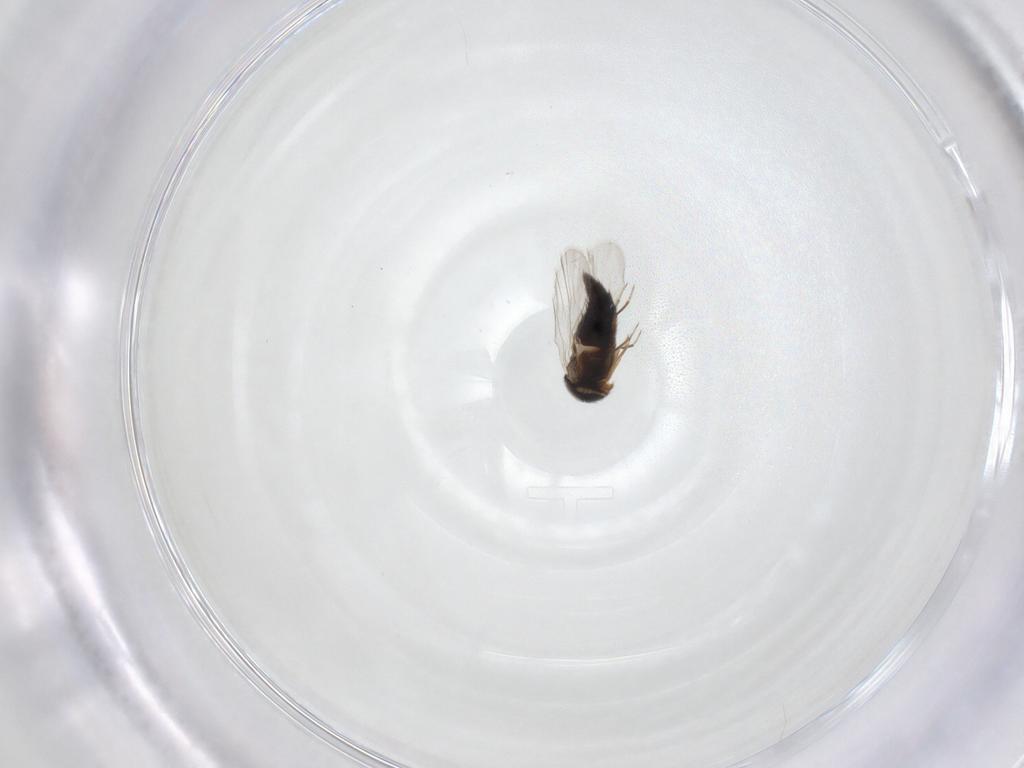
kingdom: Animalia
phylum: Arthropoda
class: Insecta
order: Coleoptera
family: Staphylinidae
